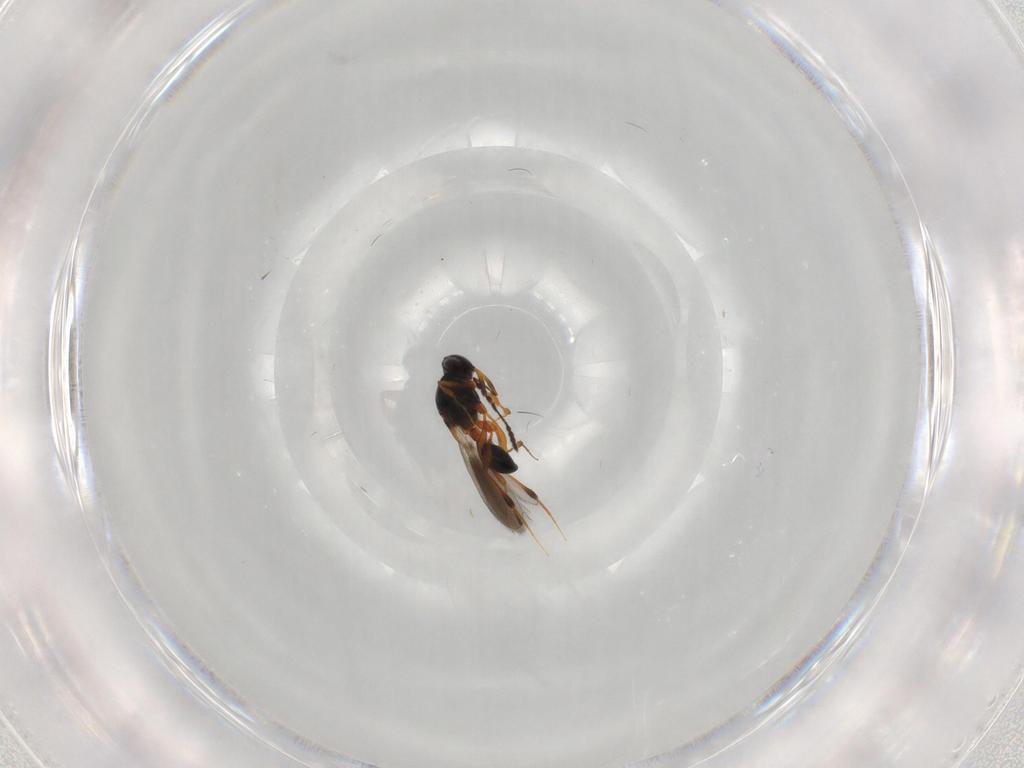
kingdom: Animalia
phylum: Arthropoda
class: Insecta
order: Hymenoptera
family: Platygastridae
